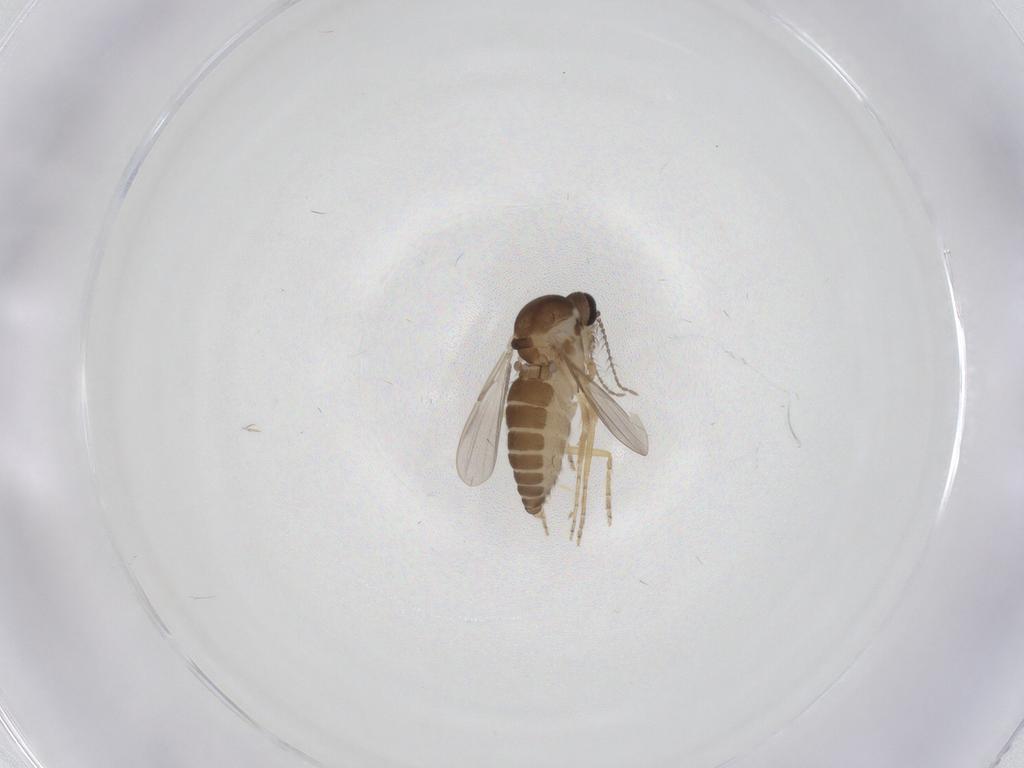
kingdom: Animalia
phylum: Arthropoda
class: Insecta
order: Diptera
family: Ceratopogonidae
